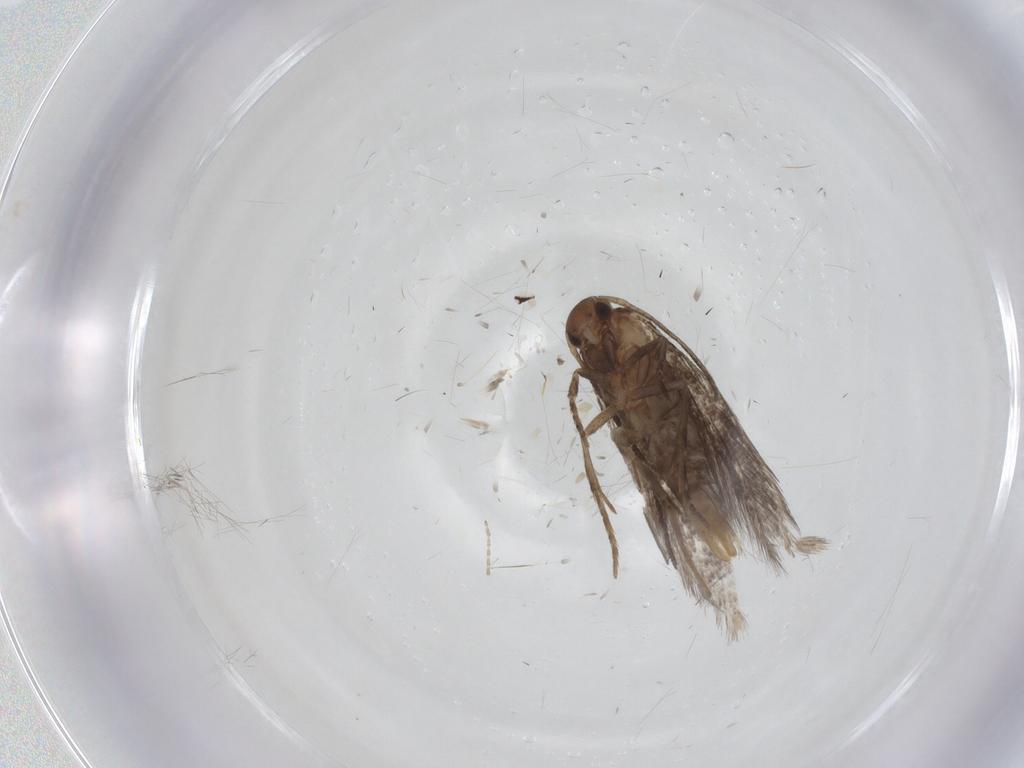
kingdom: Animalia
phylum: Arthropoda
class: Insecta
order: Lepidoptera
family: Elachistidae
